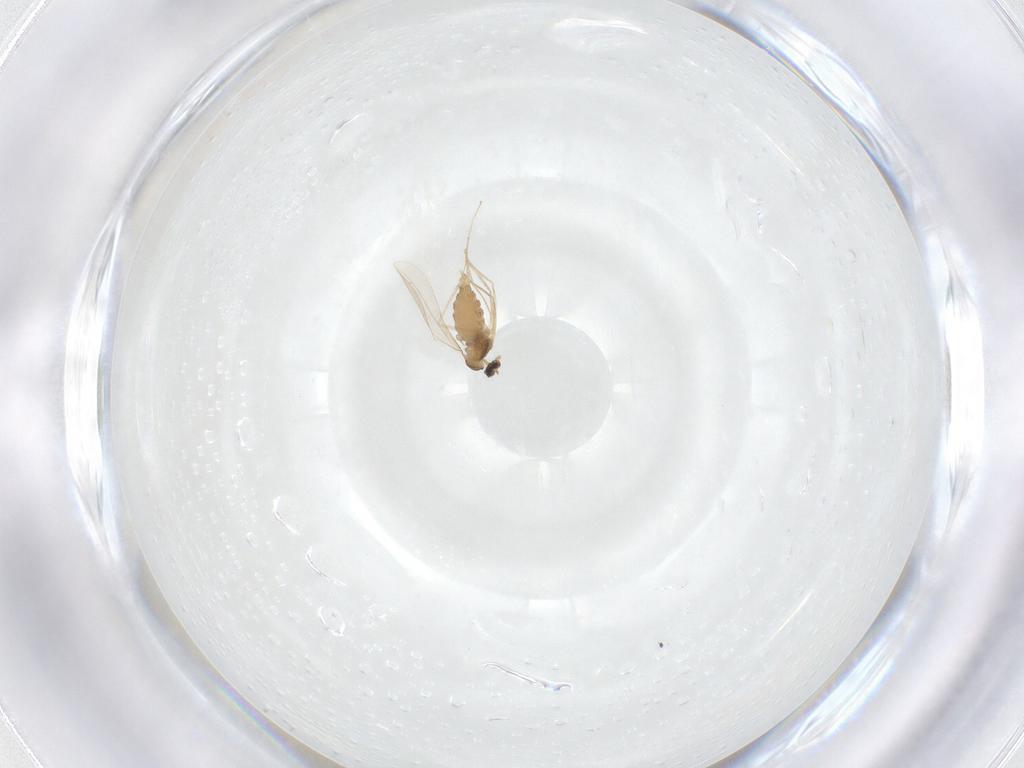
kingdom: Animalia
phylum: Arthropoda
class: Insecta
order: Diptera
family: Cecidomyiidae
